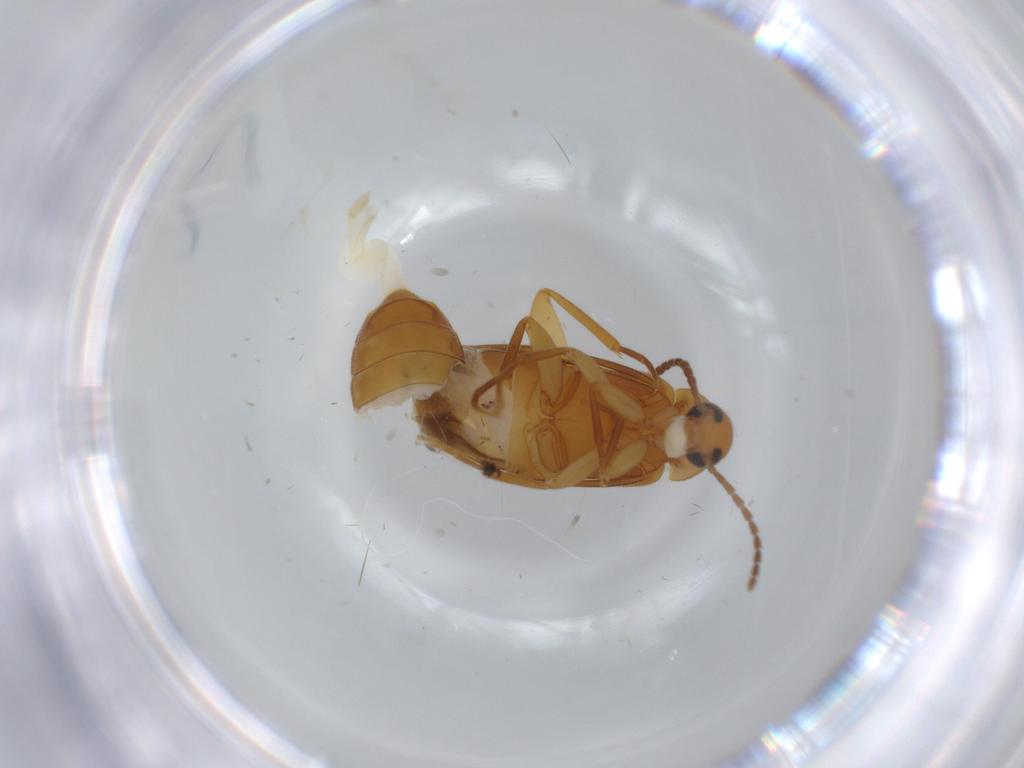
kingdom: Animalia
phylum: Arthropoda
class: Insecta
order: Coleoptera
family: Scraptiidae
